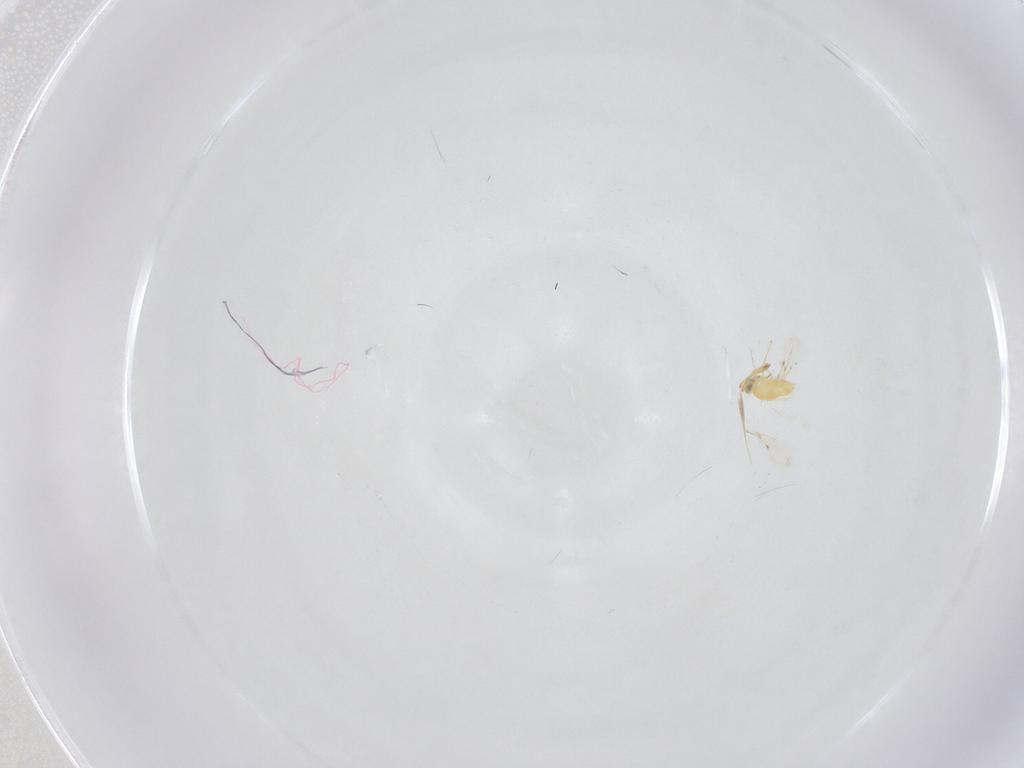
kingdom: Animalia
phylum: Arthropoda
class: Insecta
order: Hymenoptera
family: Aphelinidae
